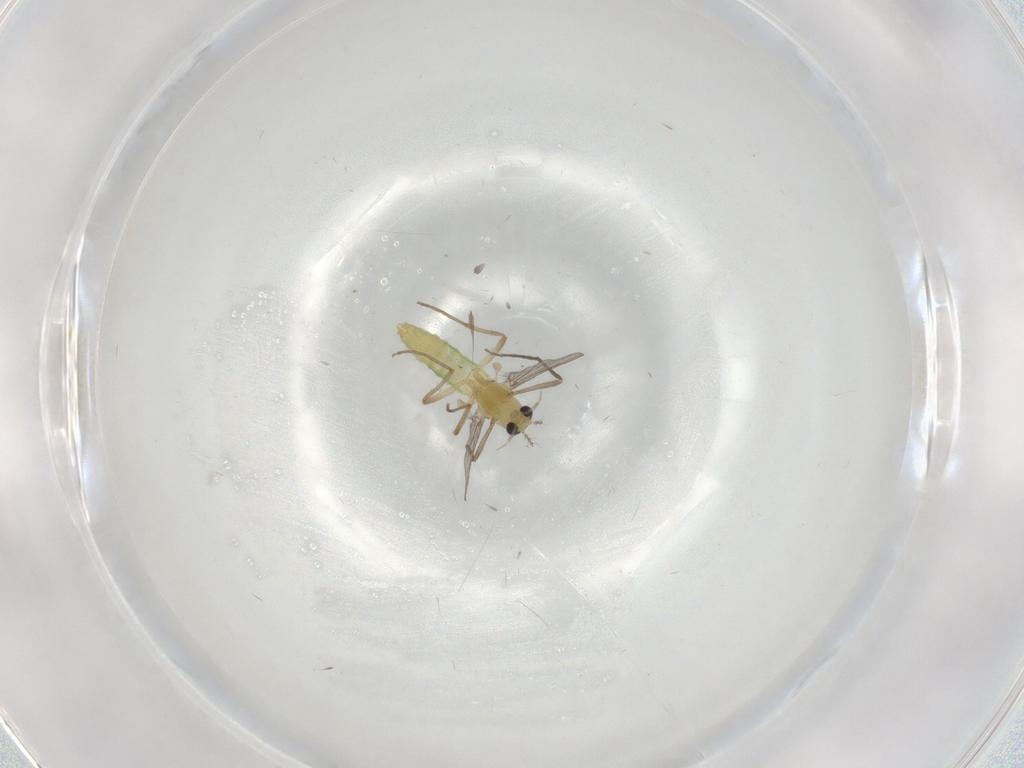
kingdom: Animalia
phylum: Arthropoda
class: Insecta
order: Diptera
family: Chironomidae
